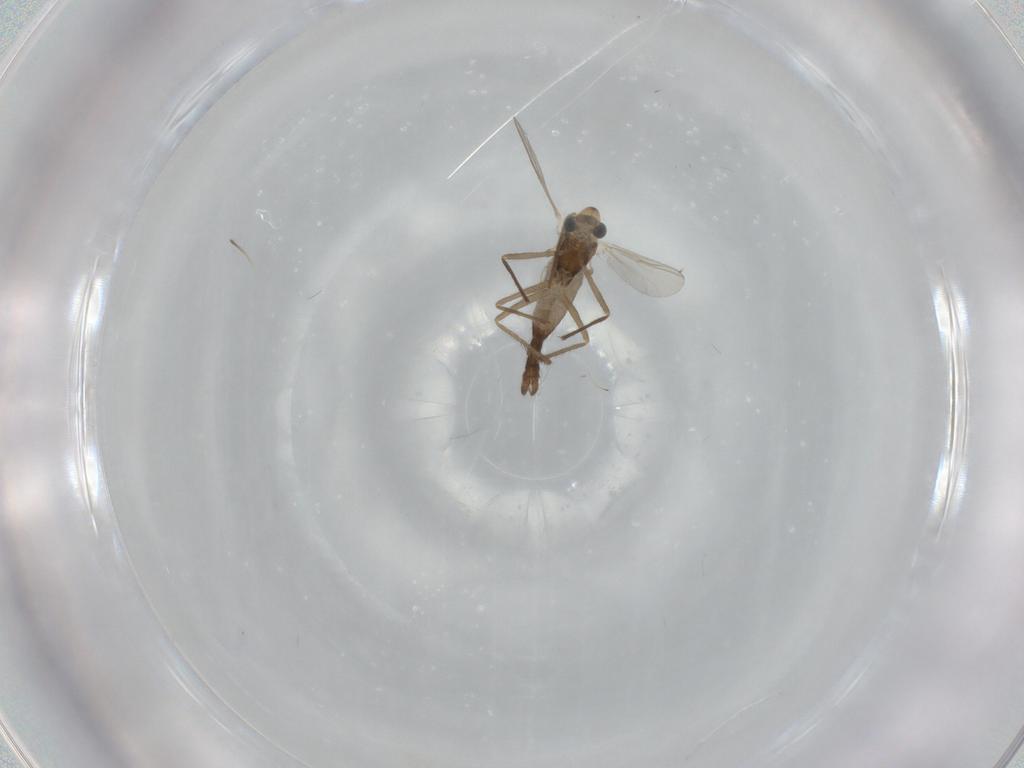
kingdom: Animalia
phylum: Arthropoda
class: Insecta
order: Diptera
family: Chironomidae
